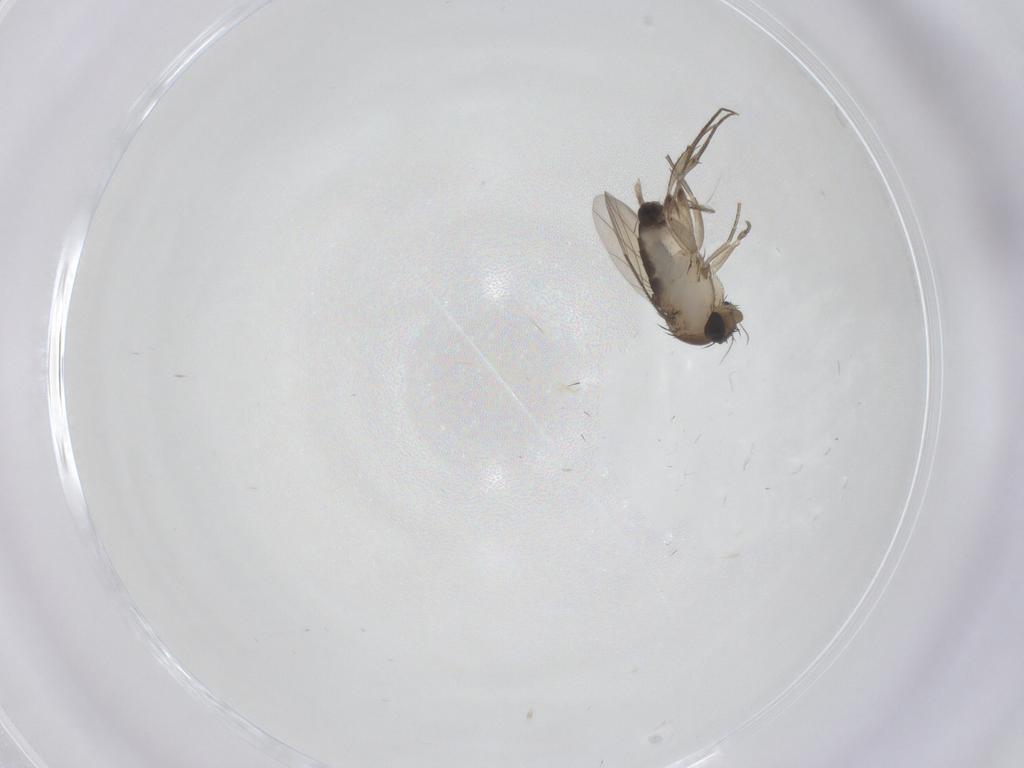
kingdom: Animalia
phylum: Arthropoda
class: Insecta
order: Diptera
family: Phoridae
